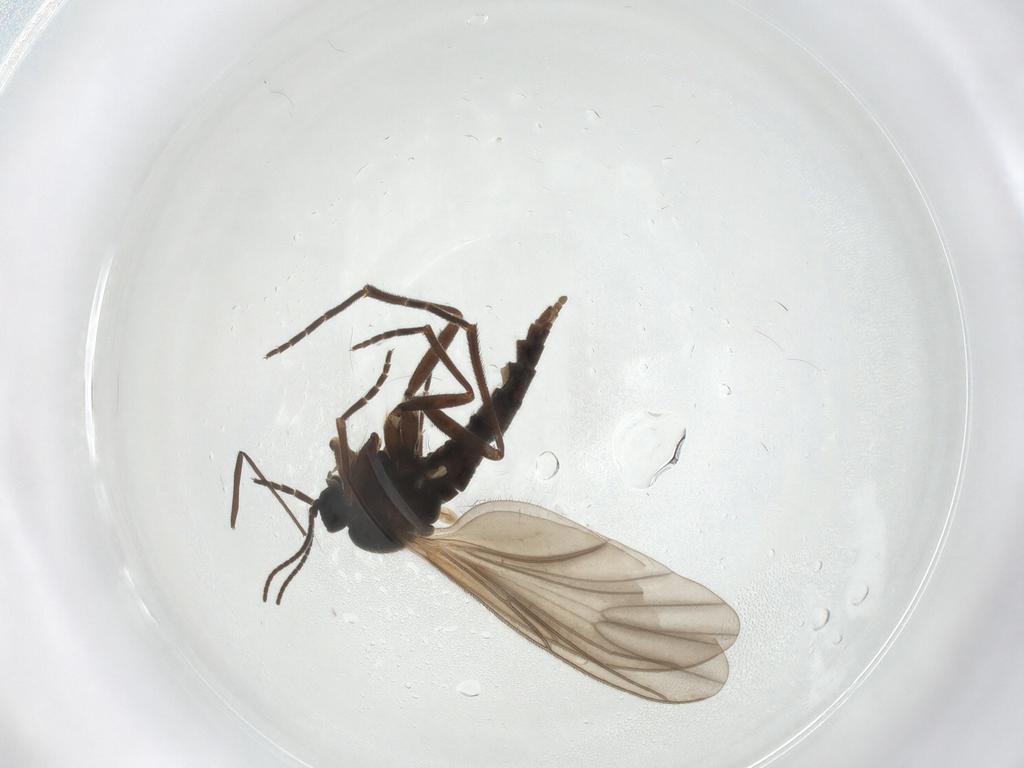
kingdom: Animalia
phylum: Arthropoda
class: Insecta
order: Diptera
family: Sciaridae
